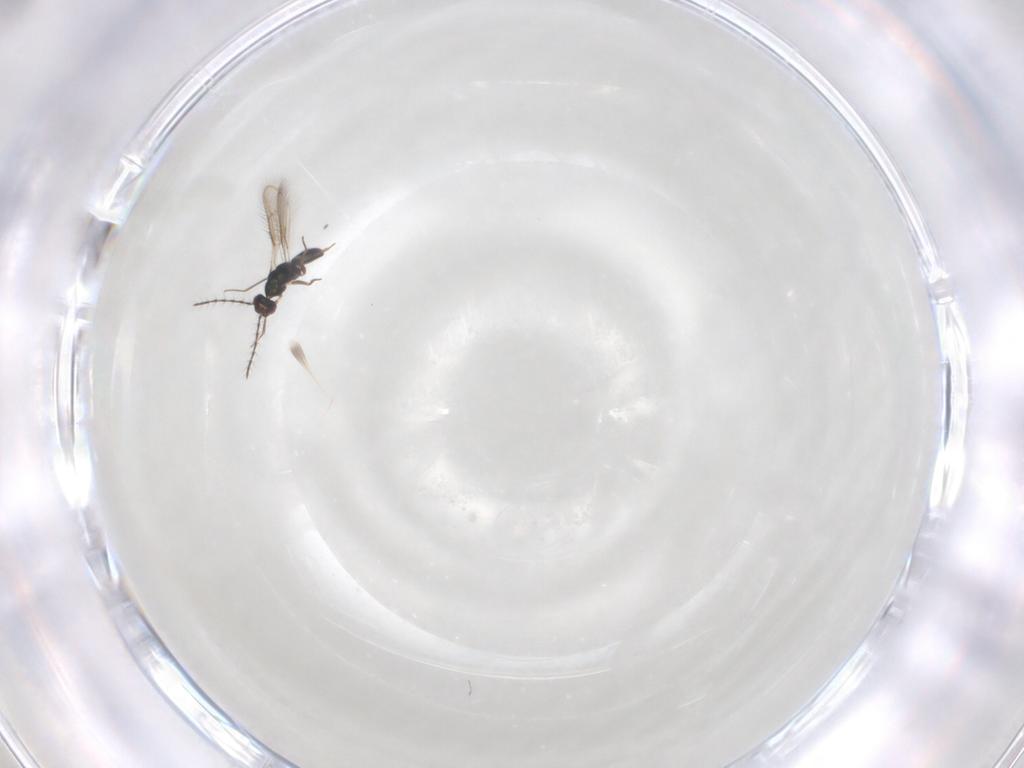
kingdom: Animalia
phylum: Arthropoda
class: Insecta
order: Hymenoptera
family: Pteromalidae
